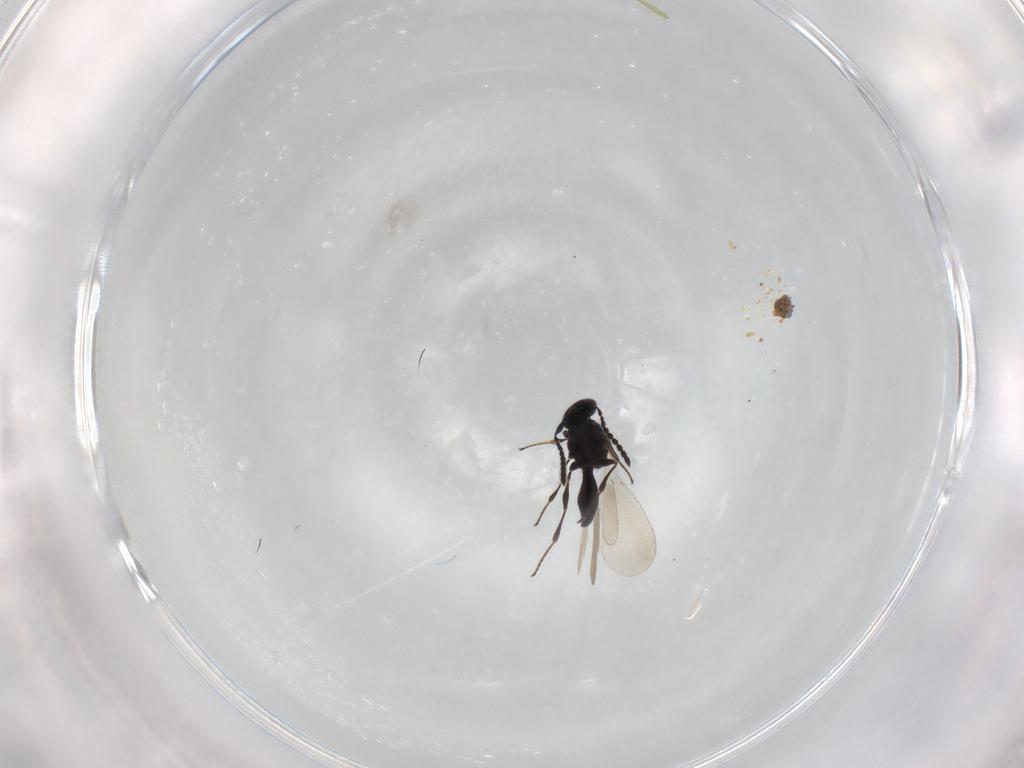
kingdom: Animalia
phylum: Arthropoda
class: Insecta
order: Hymenoptera
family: Platygastridae
